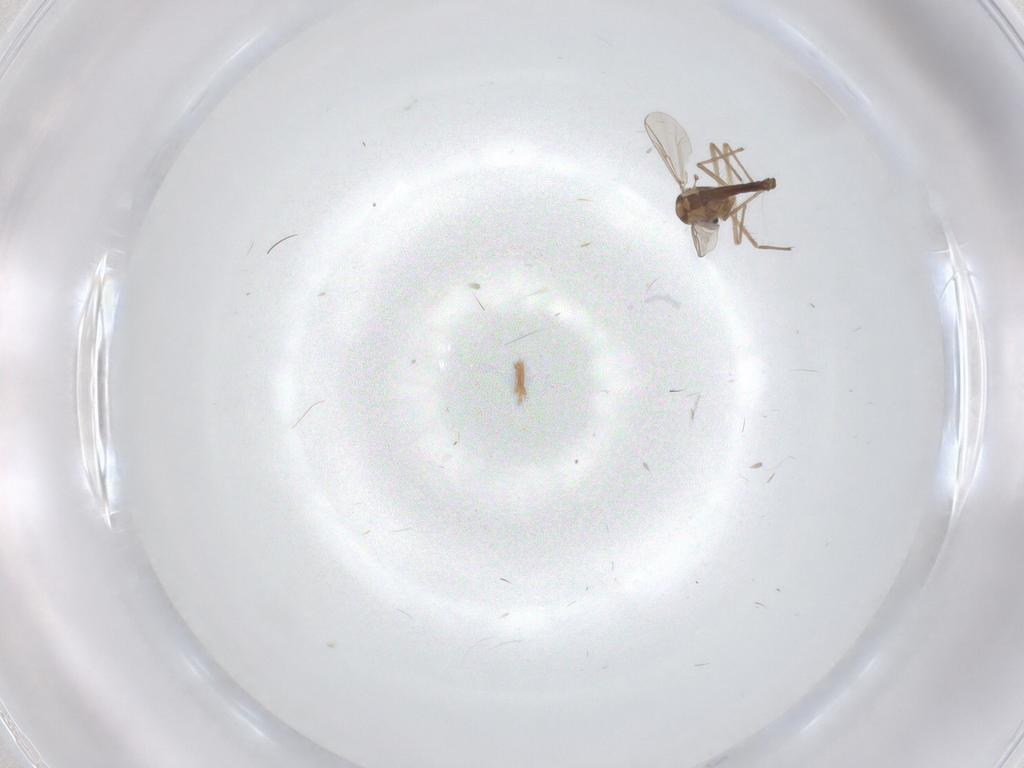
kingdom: Animalia
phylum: Arthropoda
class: Insecta
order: Diptera
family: Chironomidae
